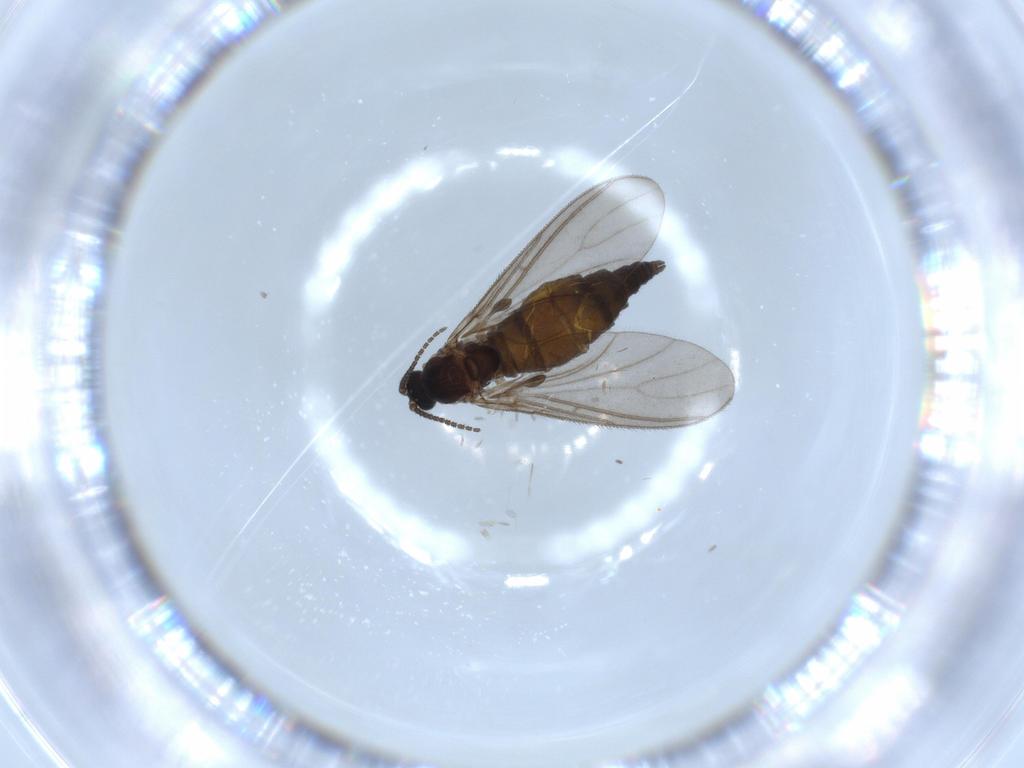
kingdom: Animalia
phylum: Arthropoda
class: Insecta
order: Diptera
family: Sciaridae
